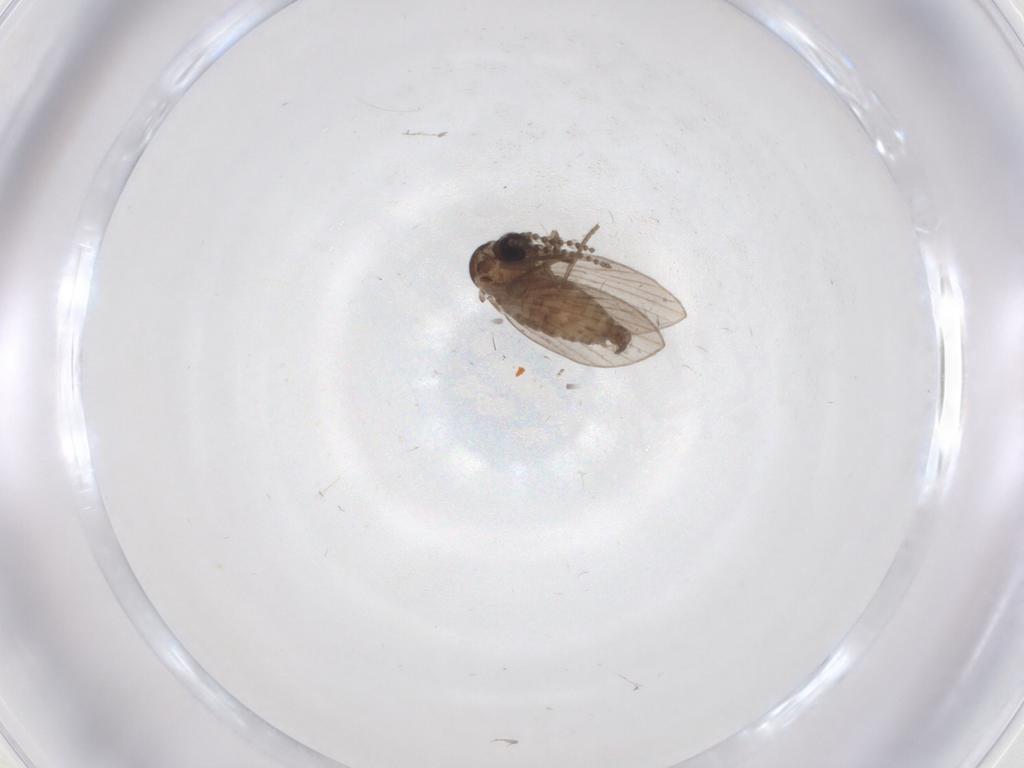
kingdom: Animalia
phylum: Arthropoda
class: Insecta
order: Diptera
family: Psychodidae
